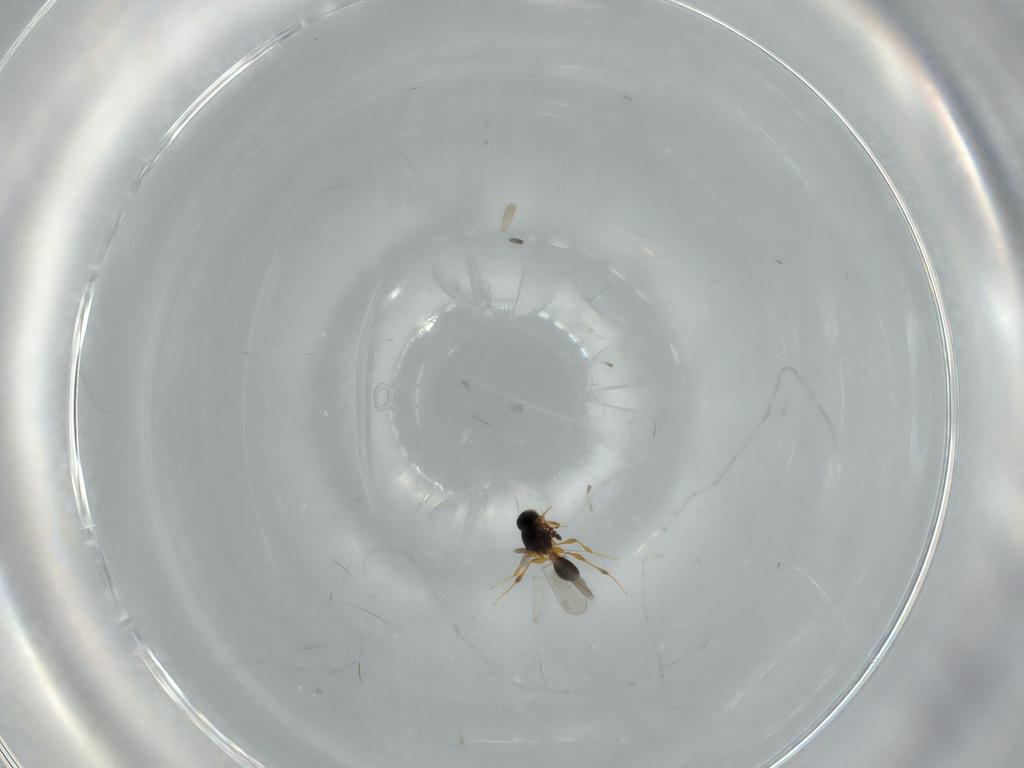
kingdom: Animalia
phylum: Arthropoda
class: Insecta
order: Hymenoptera
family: Platygastridae
